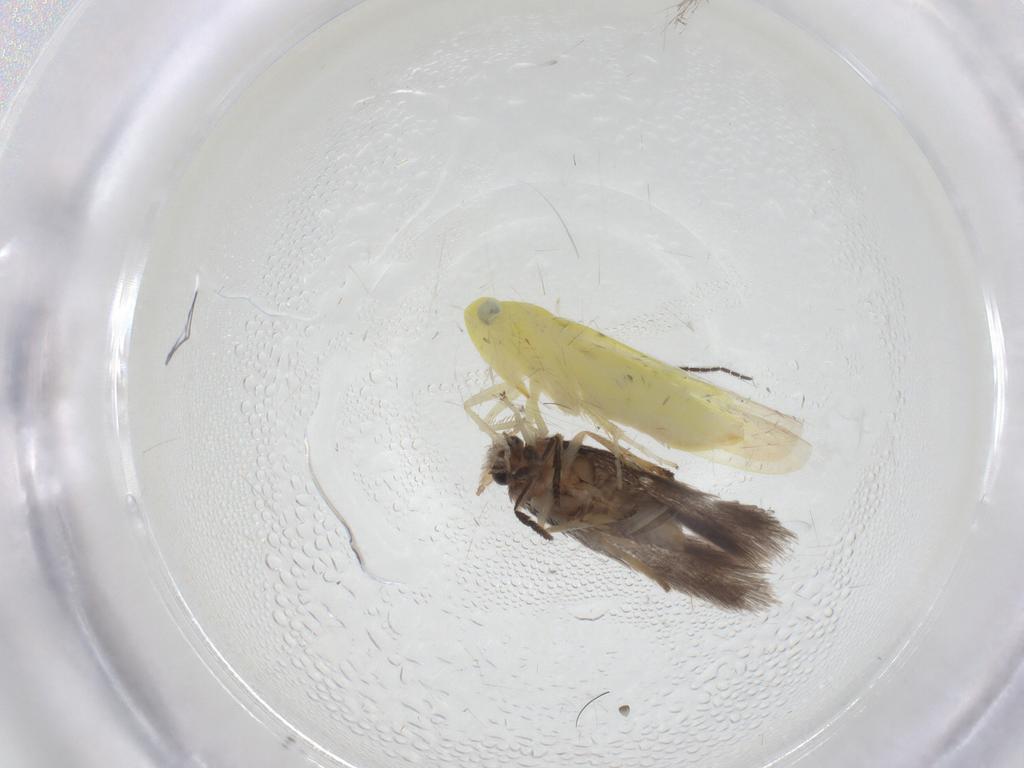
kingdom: Animalia
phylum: Arthropoda
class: Insecta
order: Lepidoptera
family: Nepticulidae
